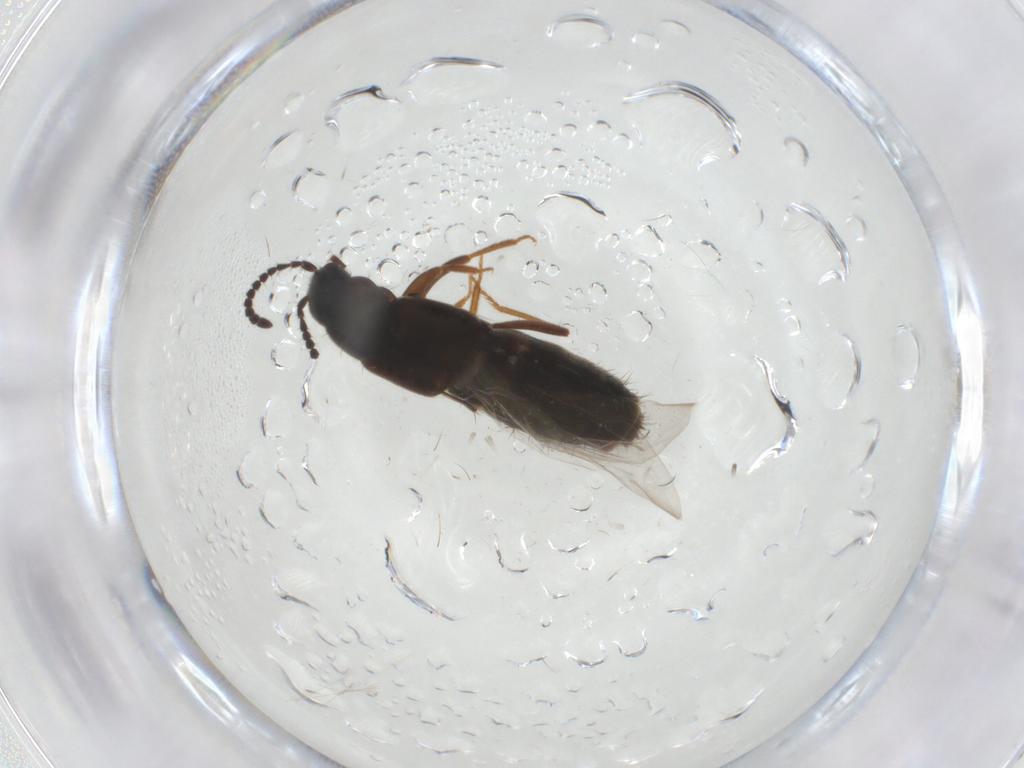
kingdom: Animalia
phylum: Arthropoda
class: Insecta
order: Coleoptera
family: Staphylinidae
